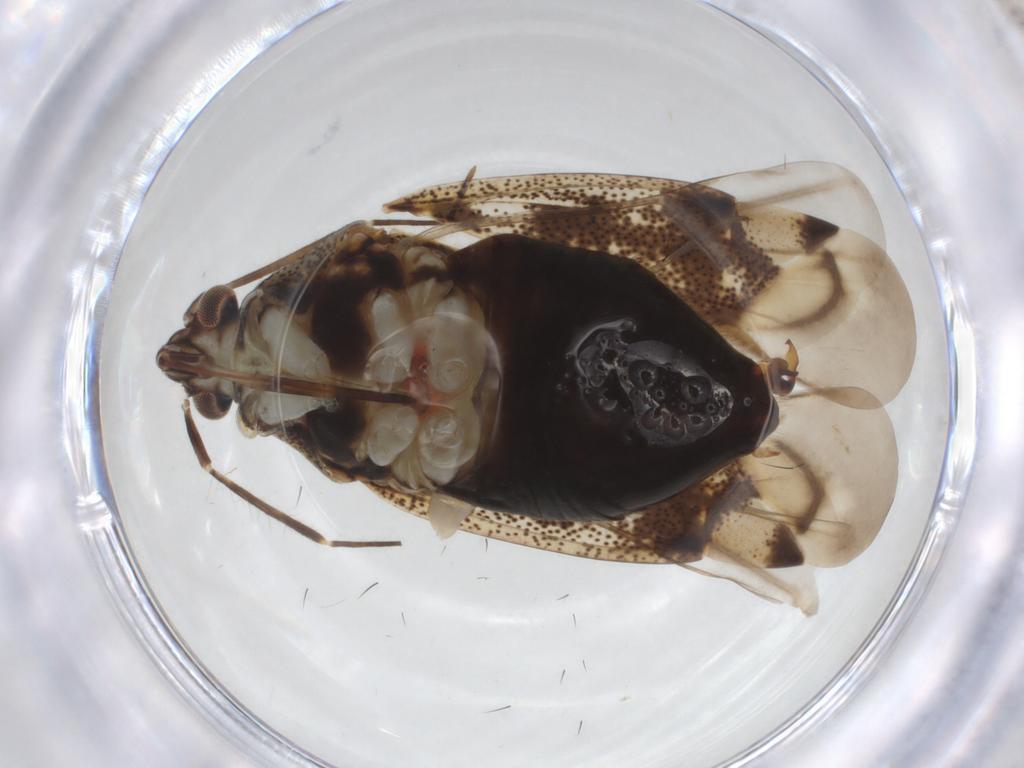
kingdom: Animalia
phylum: Arthropoda
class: Insecta
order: Hemiptera
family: Miridae
